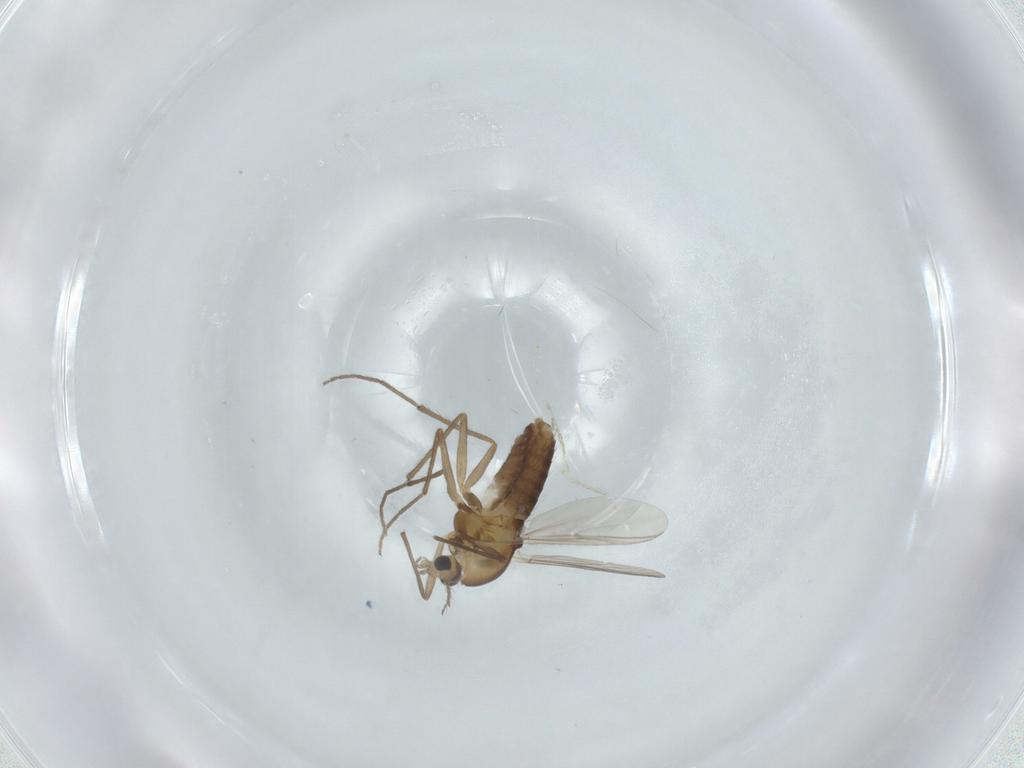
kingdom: Animalia
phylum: Arthropoda
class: Insecta
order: Diptera
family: Chironomidae
